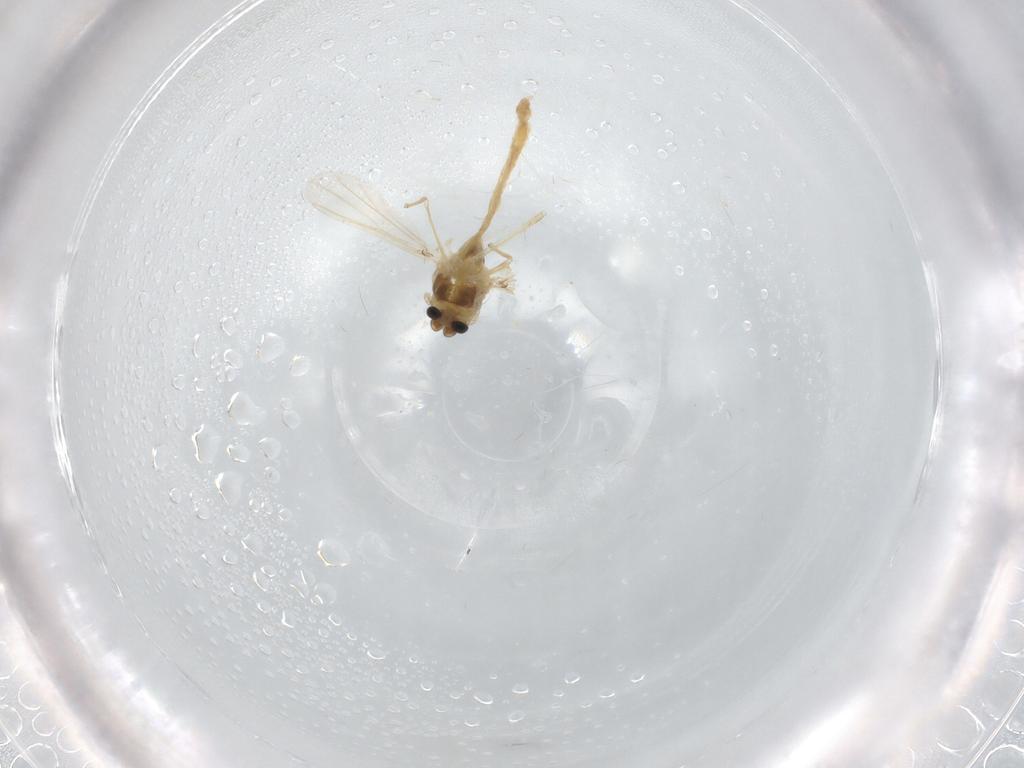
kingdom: Animalia
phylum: Arthropoda
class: Insecta
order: Diptera
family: Chironomidae
